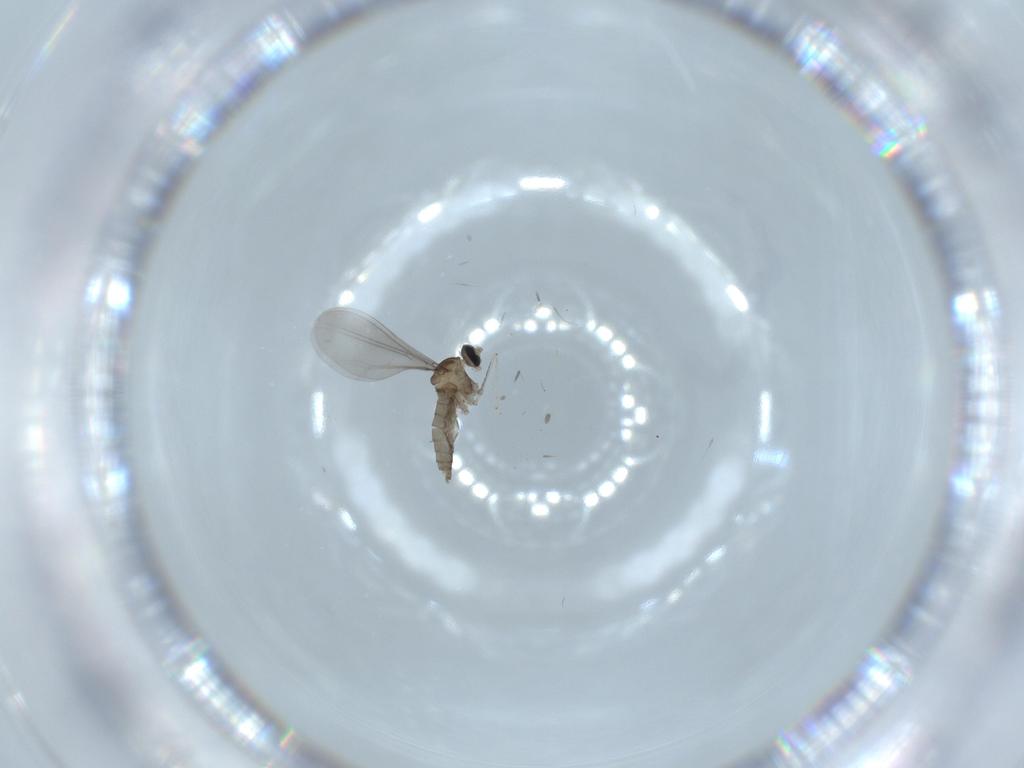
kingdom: Animalia
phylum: Arthropoda
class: Insecta
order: Diptera
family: Cecidomyiidae
